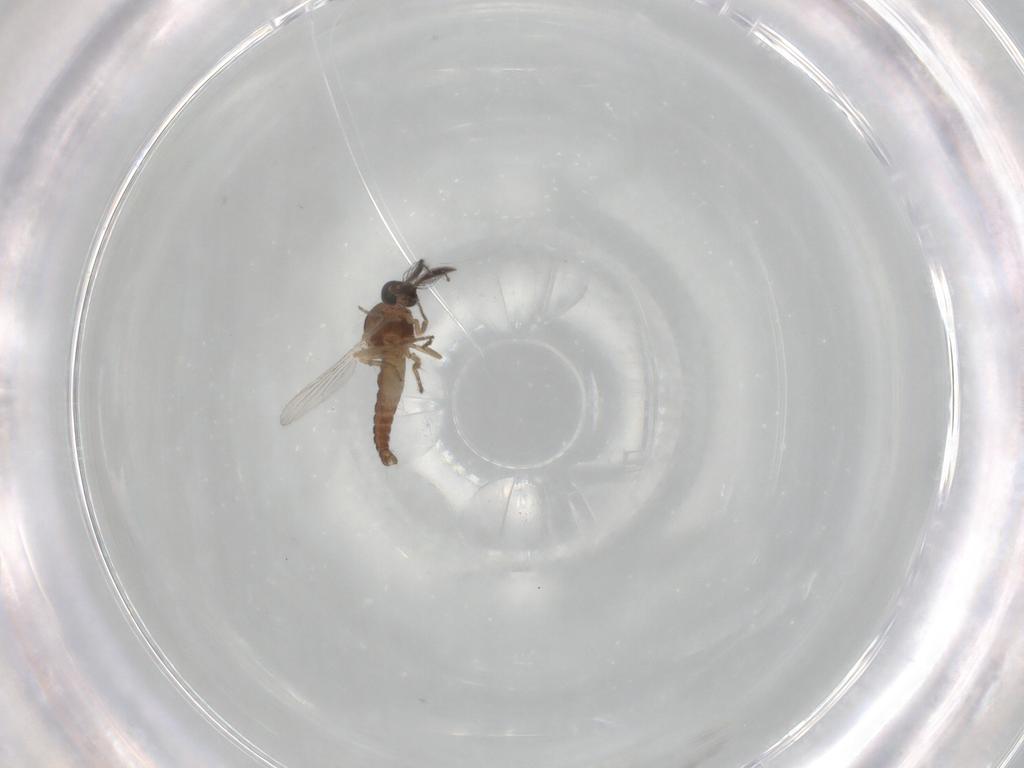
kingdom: Animalia
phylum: Arthropoda
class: Insecta
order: Diptera
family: Ceratopogonidae
